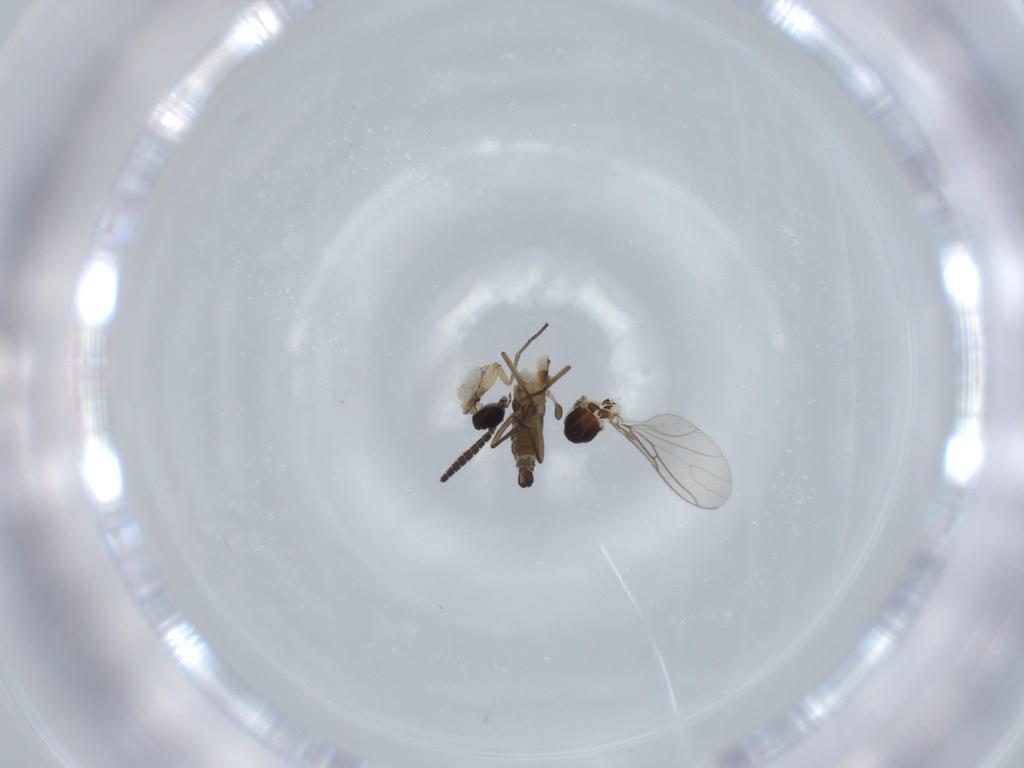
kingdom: Animalia
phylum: Arthropoda
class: Insecta
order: Diptera
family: Sciaridae
